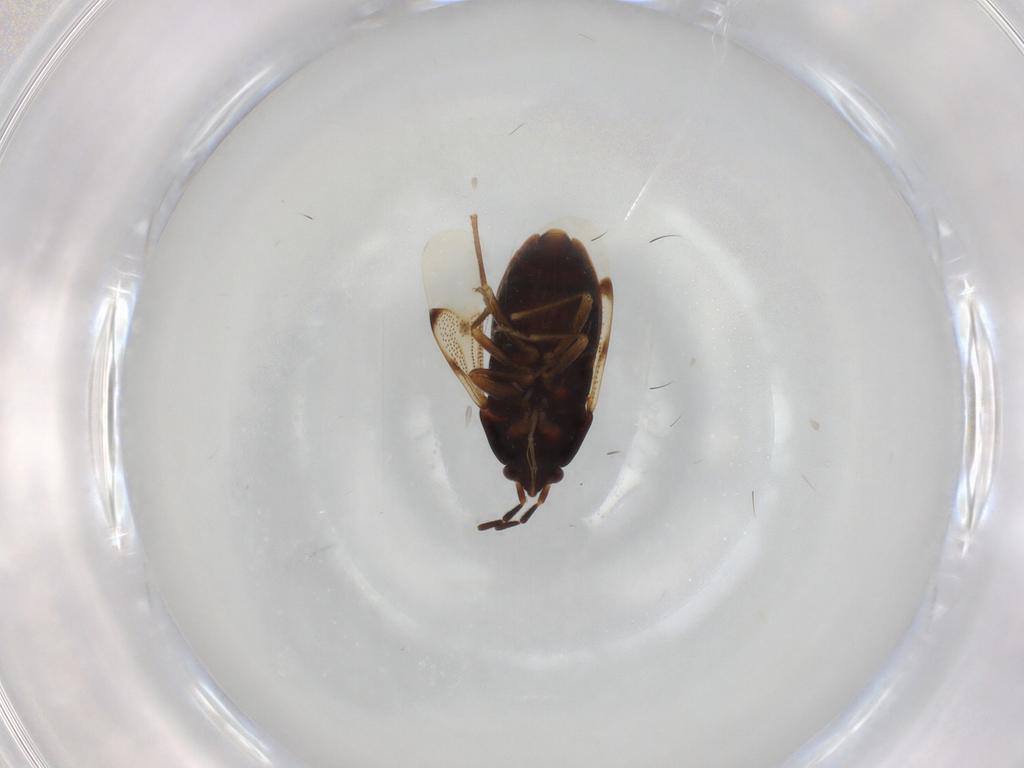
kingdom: Animalia
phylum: Arthropoda
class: Insecta
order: Hemiptera
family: Rhyparochromidae
